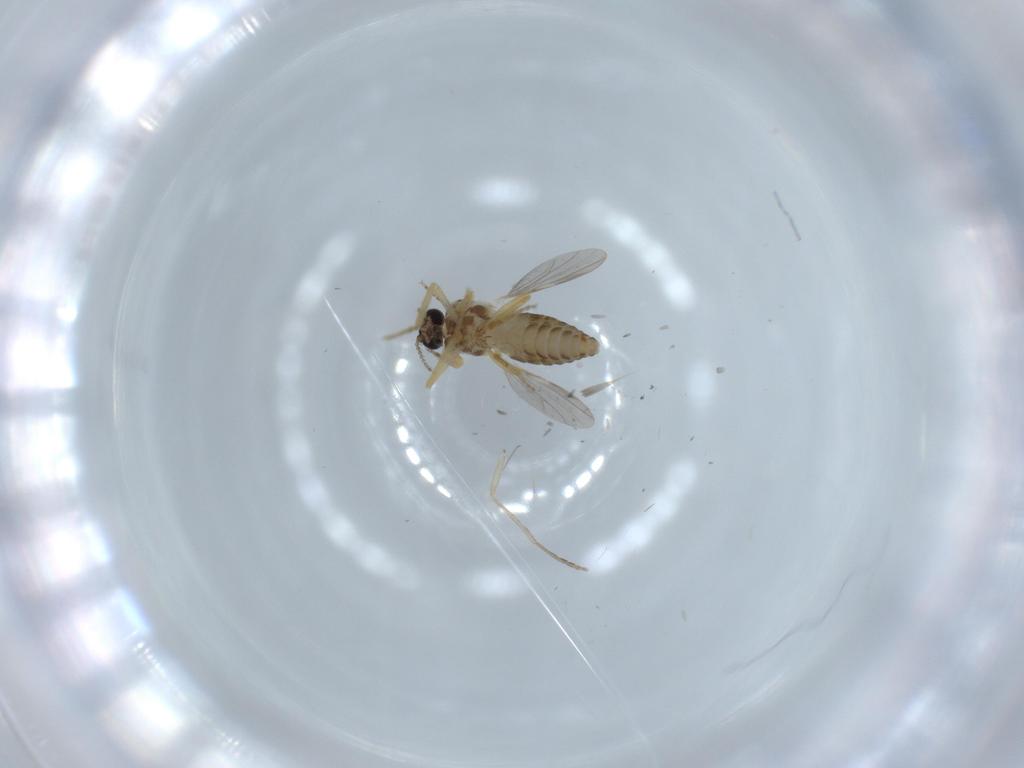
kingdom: Animalia
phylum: Arthropoda
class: Insecta
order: Diptera
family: Ceratopogonidae
